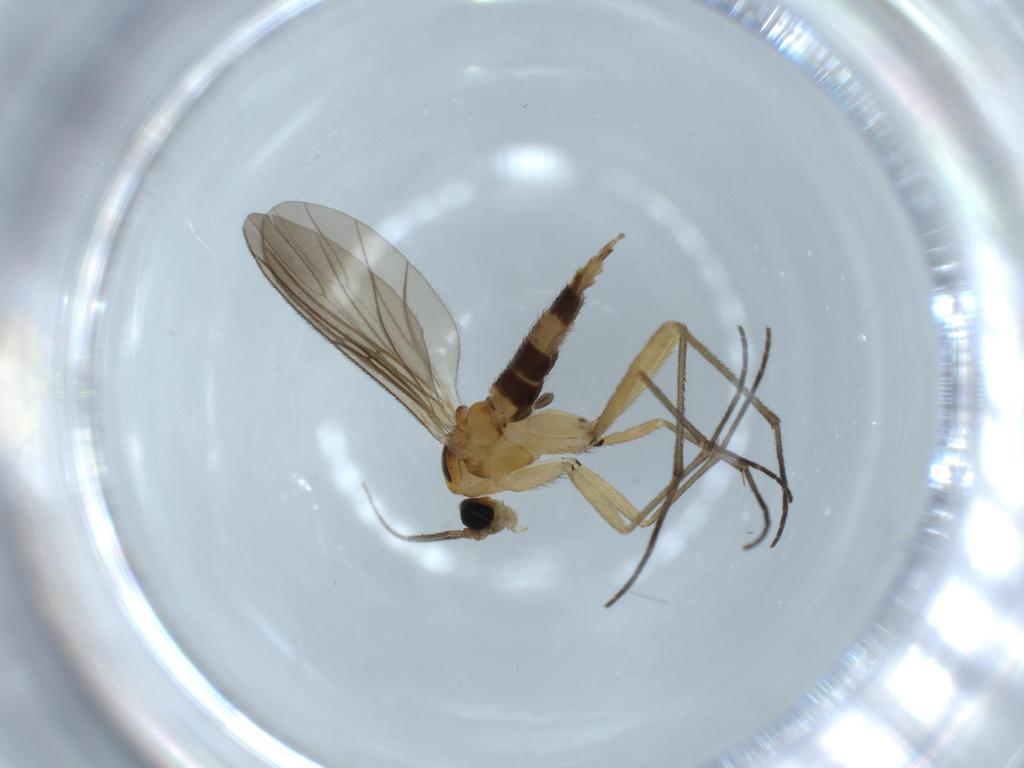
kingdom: Animalia
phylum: Arthropoda
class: Insecta
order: Diptera
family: Sciaridae
